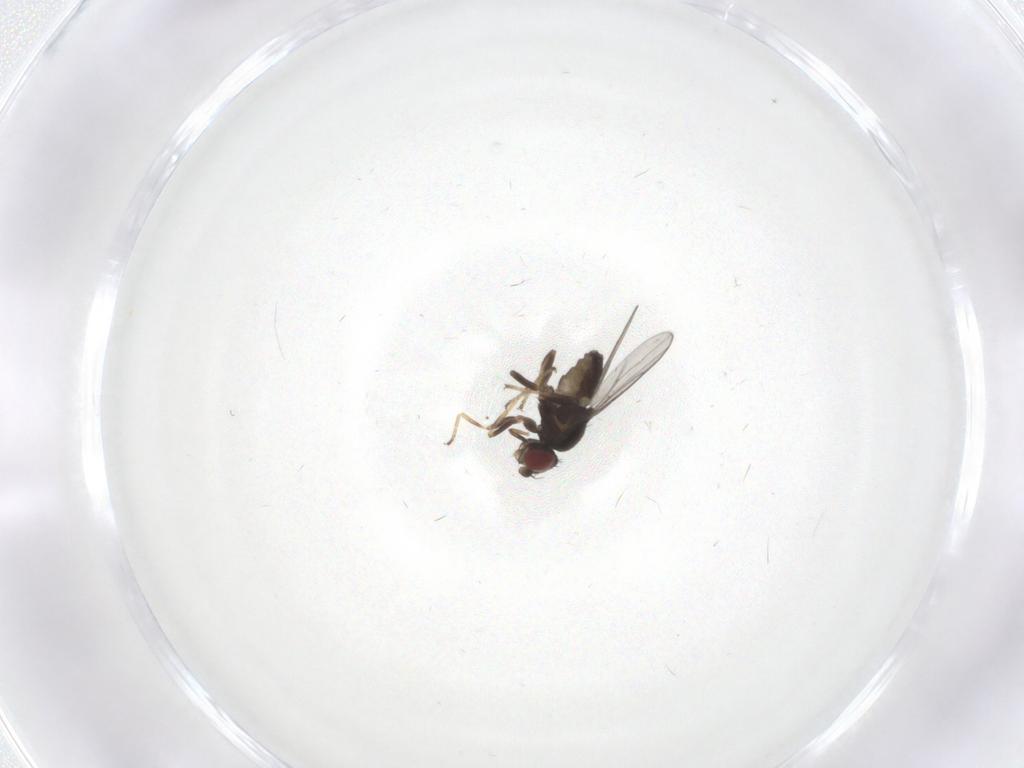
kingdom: Animalia
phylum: Arthropoda
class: Insecta
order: Diptera
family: Chloropidae
